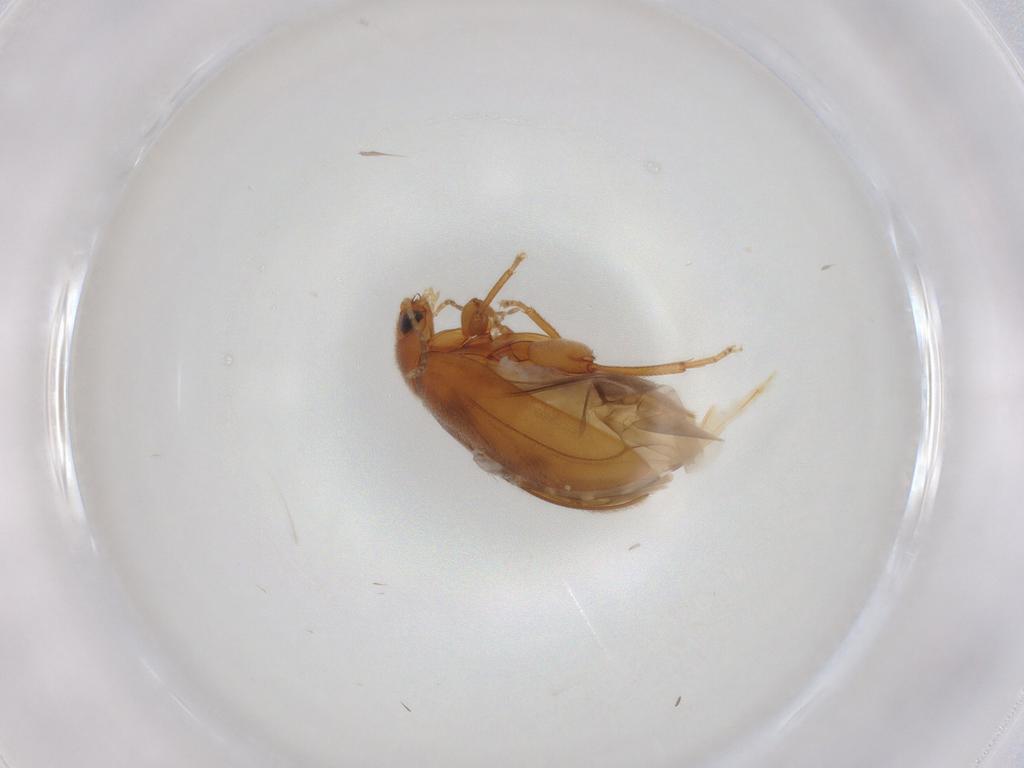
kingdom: Animalia
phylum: Arthropoda
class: Insecta
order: Coleoptera
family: Scirtidae
